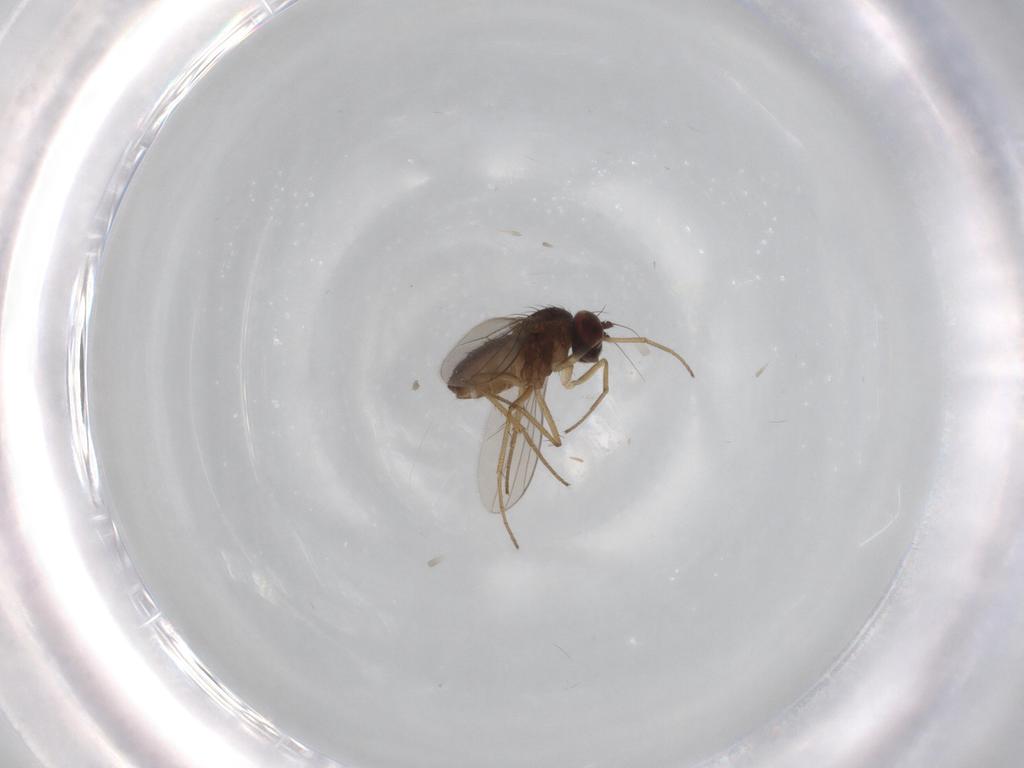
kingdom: Animalia
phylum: Arthropoda
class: Insecta
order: Diptera
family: Dolichopodidae
